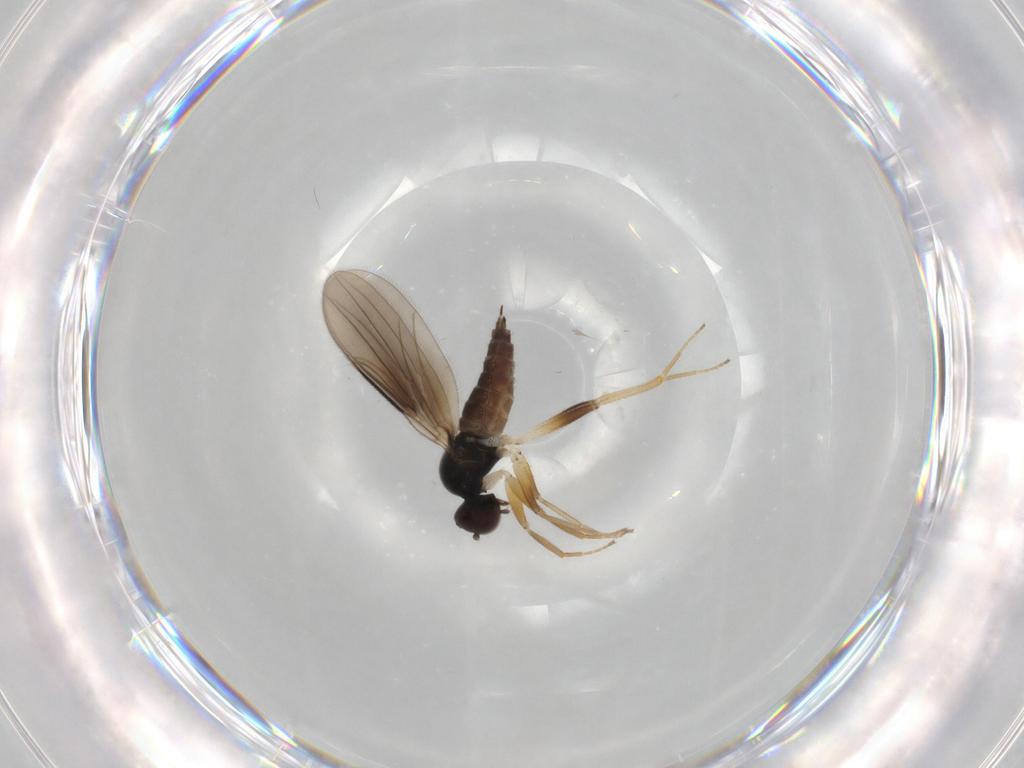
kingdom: Animalia
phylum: Arthropoda
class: Insecta
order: Diptera
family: Hybotidae
